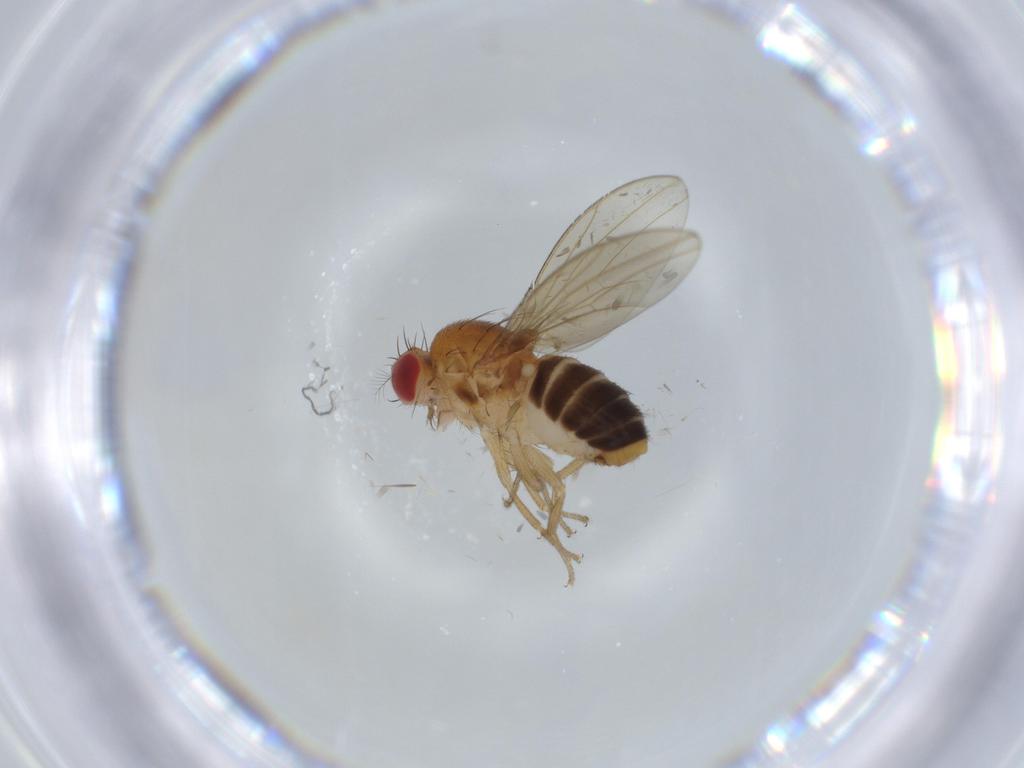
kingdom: Animalia
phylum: Arthropoda
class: Insecta
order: Diptera
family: Drosophilidae
